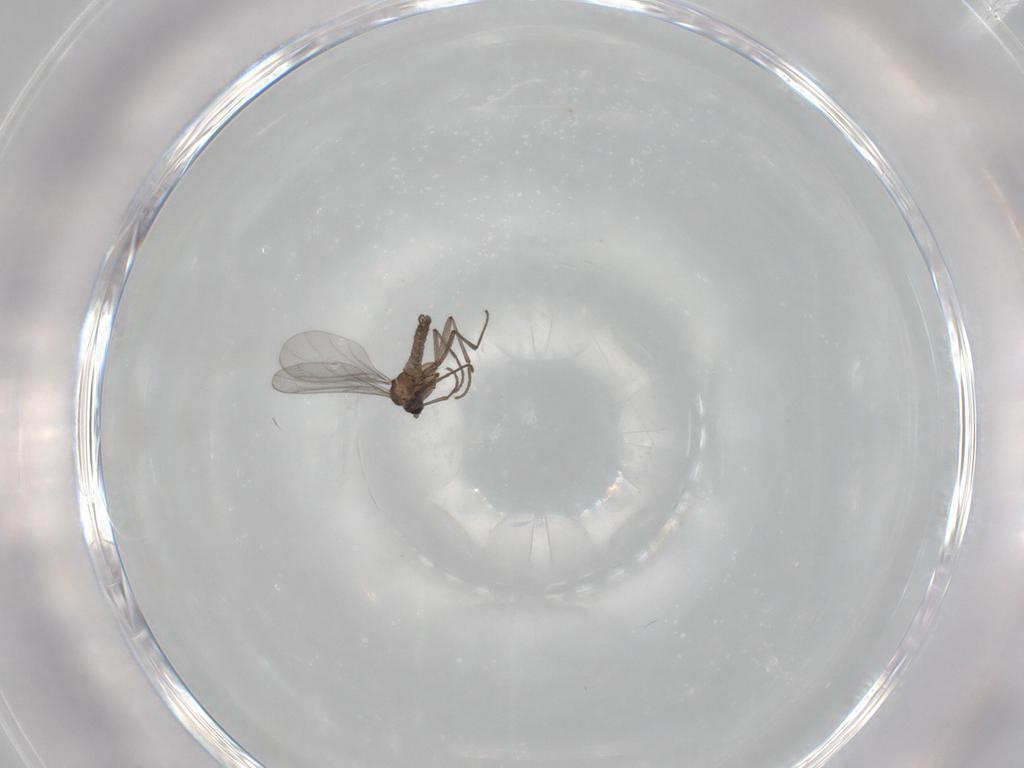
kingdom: Animalia
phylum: Arthropoda
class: Insecta
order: Diptera
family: Sciaridae
